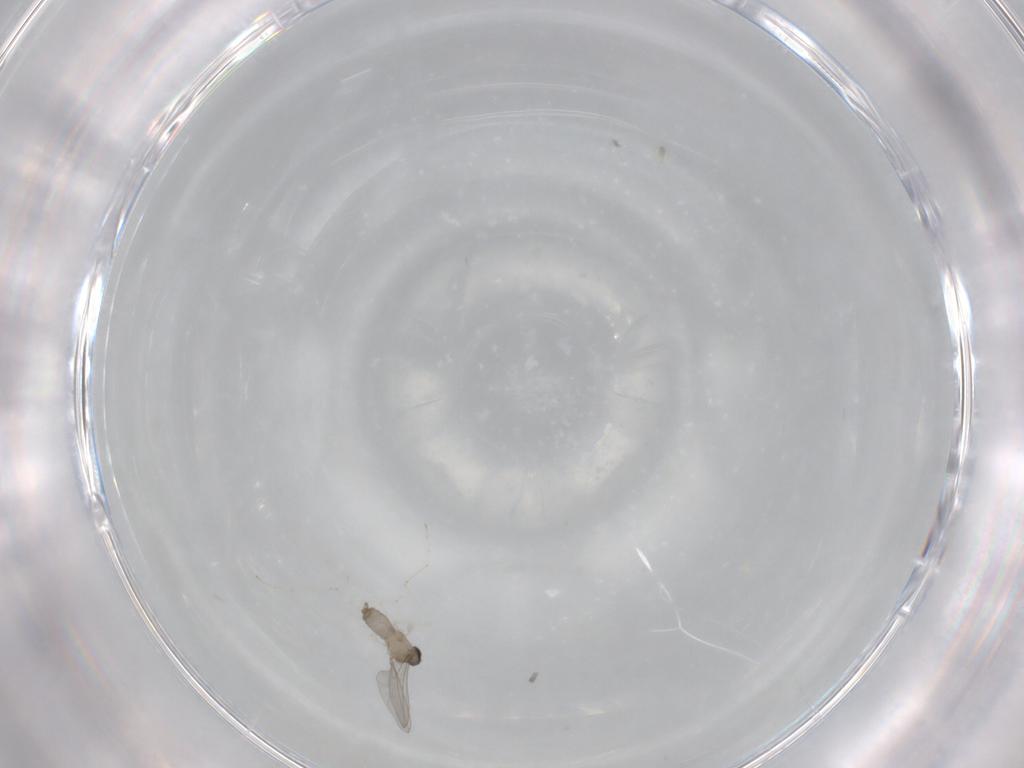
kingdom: Animalia
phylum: Arthropoda
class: Insecta
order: Diptera
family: Cecidomyiidae
